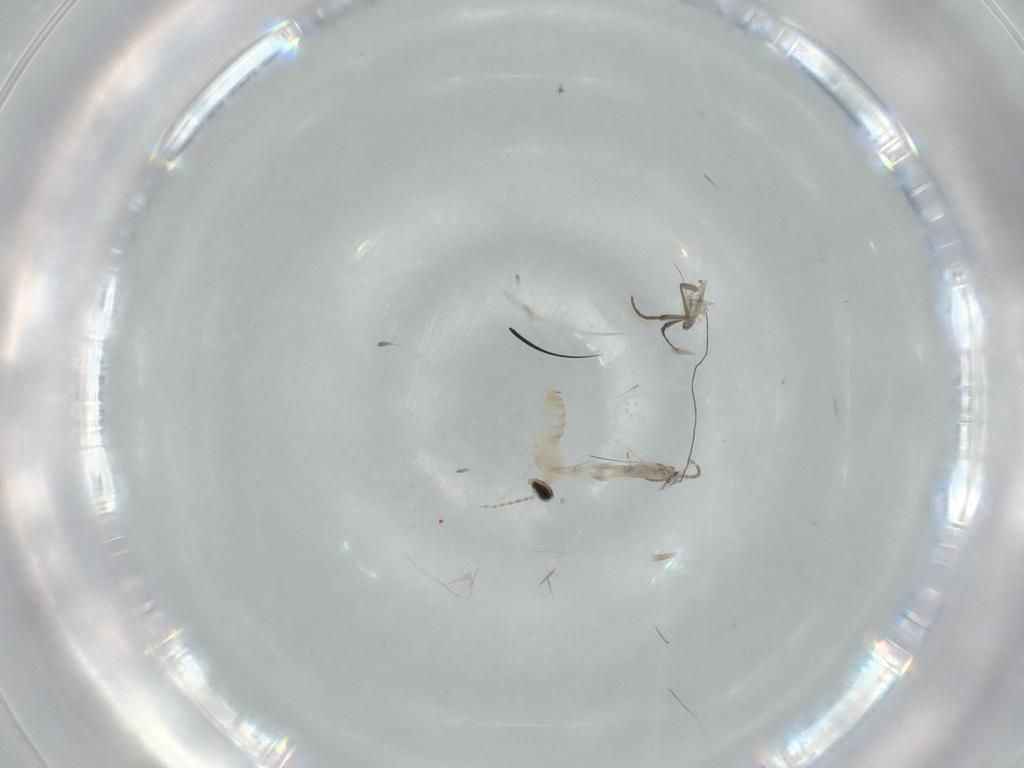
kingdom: Animalia
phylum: Arthropoda
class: Insecta
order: Diptera
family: Cecidomyiidae
